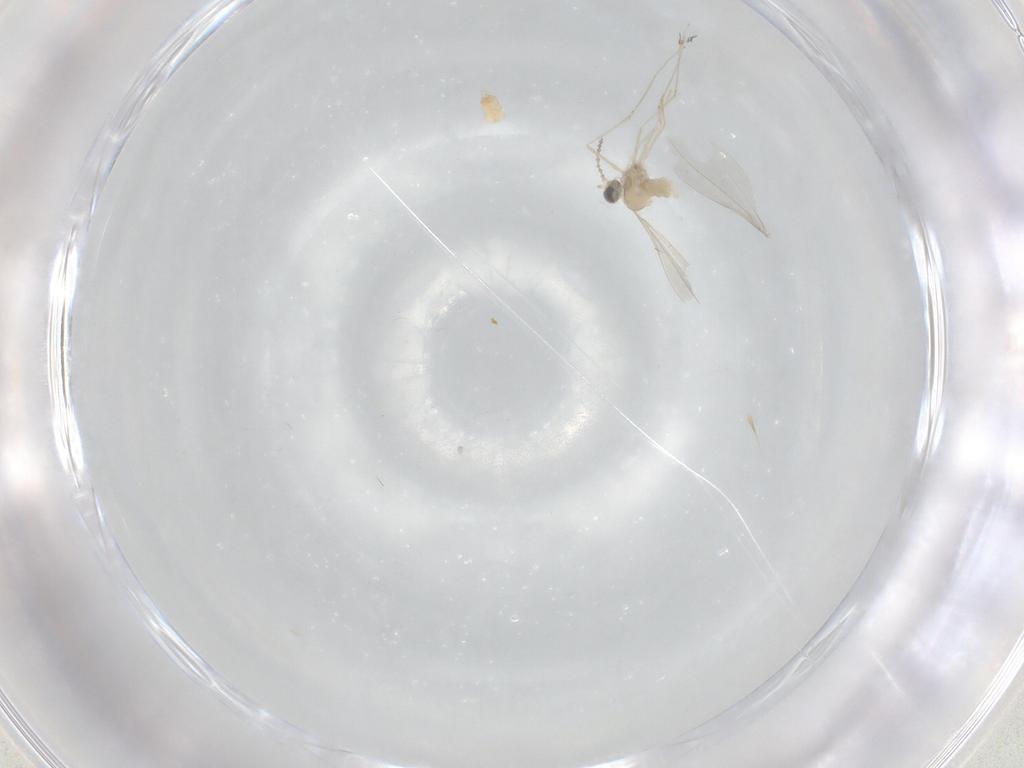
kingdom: Animalia
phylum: Arthropoda
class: Insecta
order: Diptera
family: Cecidomyiidae
